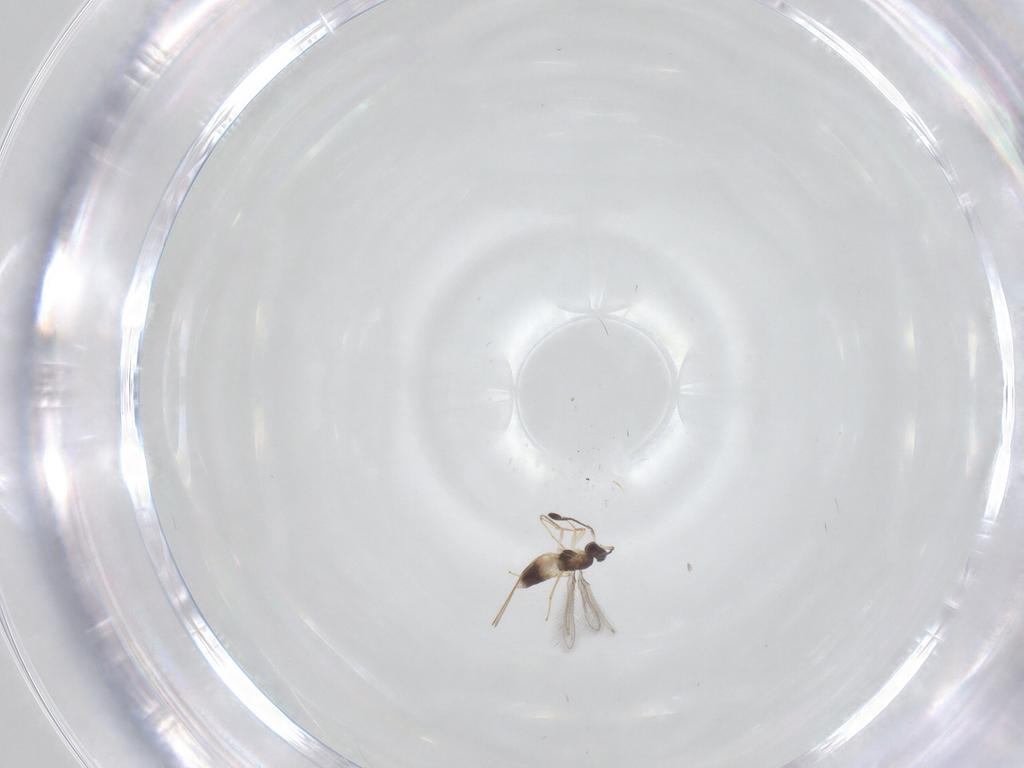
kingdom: Animalia
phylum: Arthropoda
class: Insecta
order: Hymenoptera
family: Mymaridae
